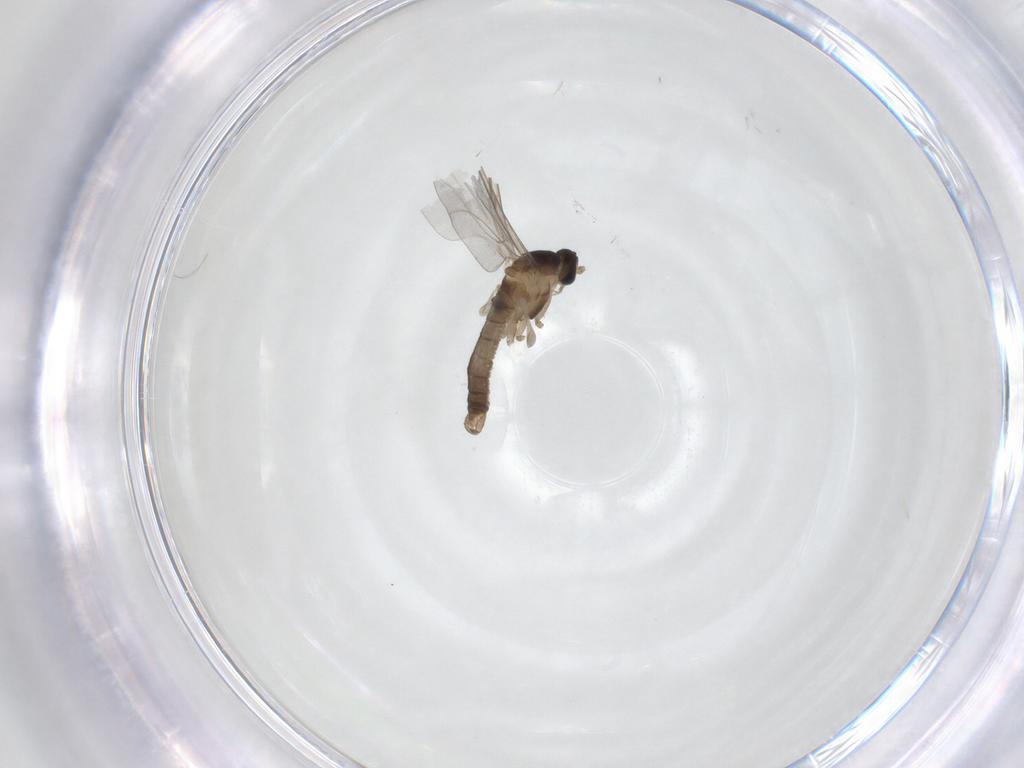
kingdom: Animalia
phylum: Arthropoda
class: Insecta
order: Diptera
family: Cecidomyiidae
